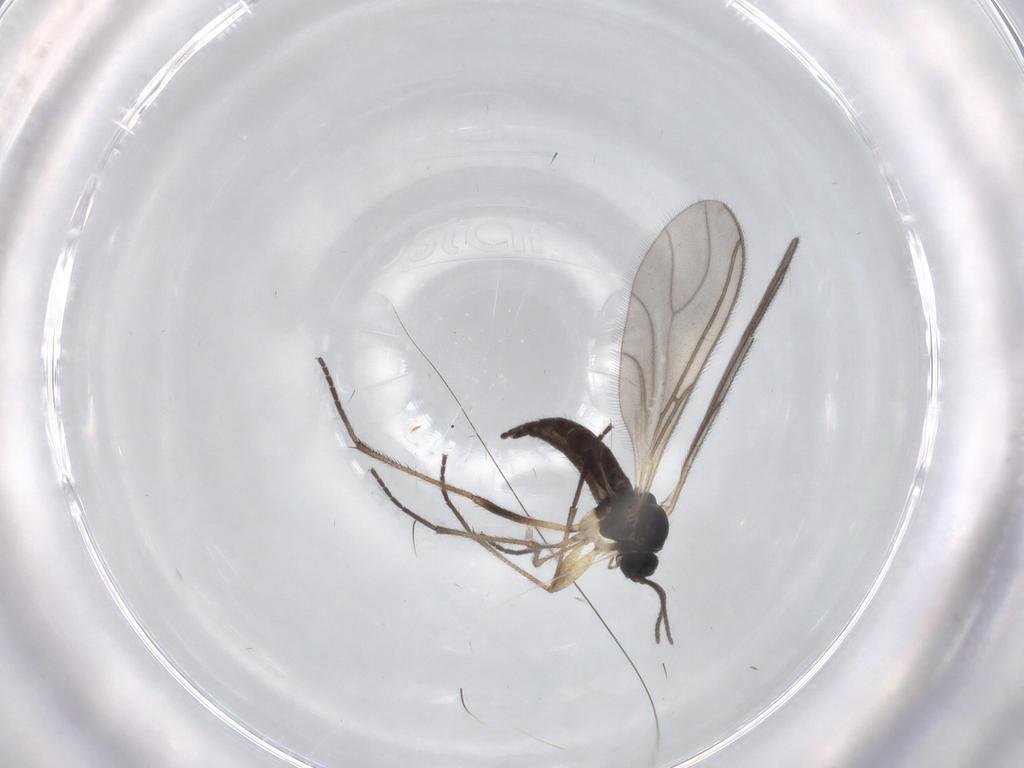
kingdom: Animalia
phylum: Arthropoda
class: Insecta
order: Diptera
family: Sciaridae
